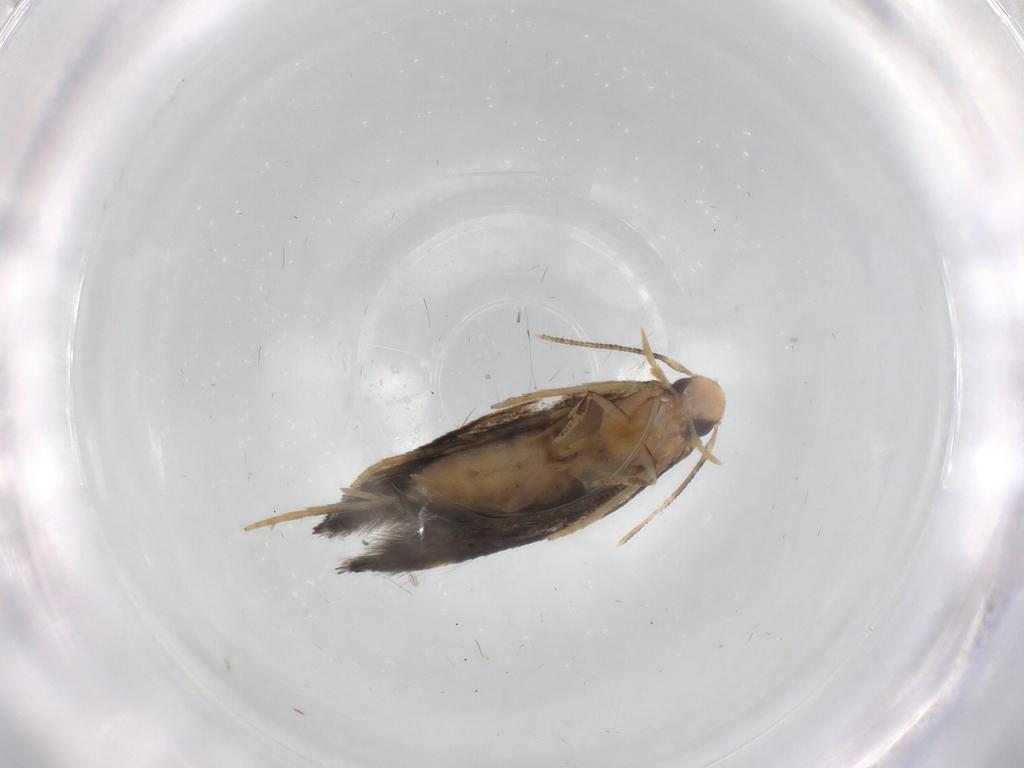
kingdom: Animalia
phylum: Arthropoda
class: Insecta
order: Lepidoptera
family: Gelechiidae
